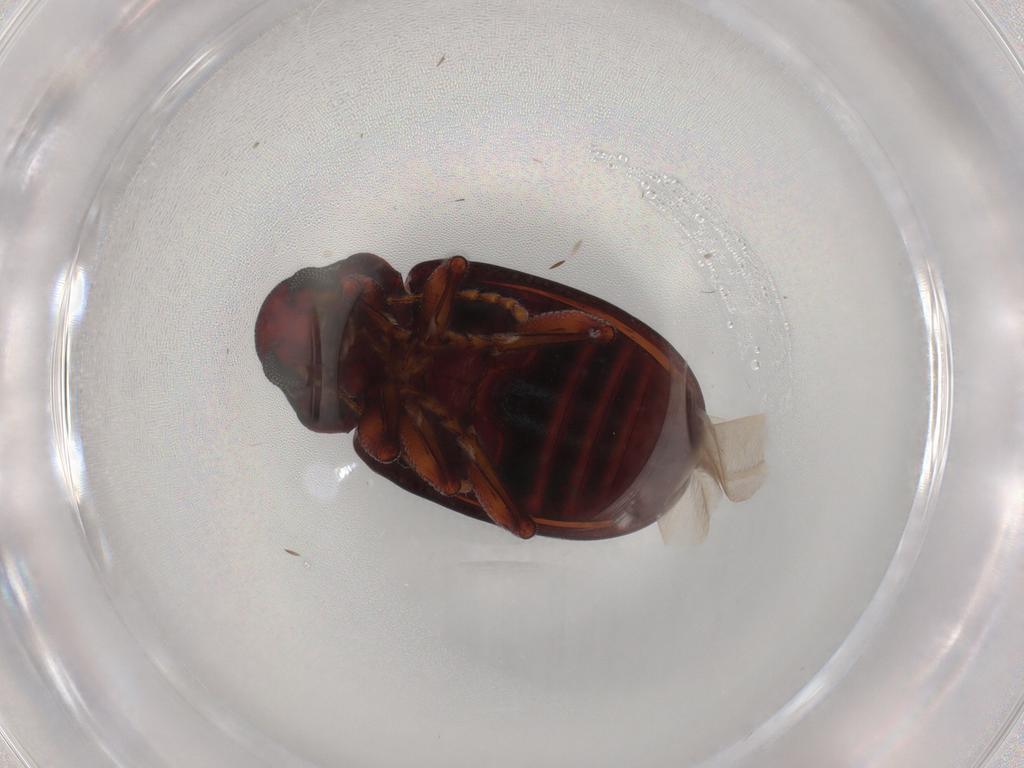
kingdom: Animalia
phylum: Arthropoda
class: Insecta
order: Coleoptera
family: Chrysomelidae
